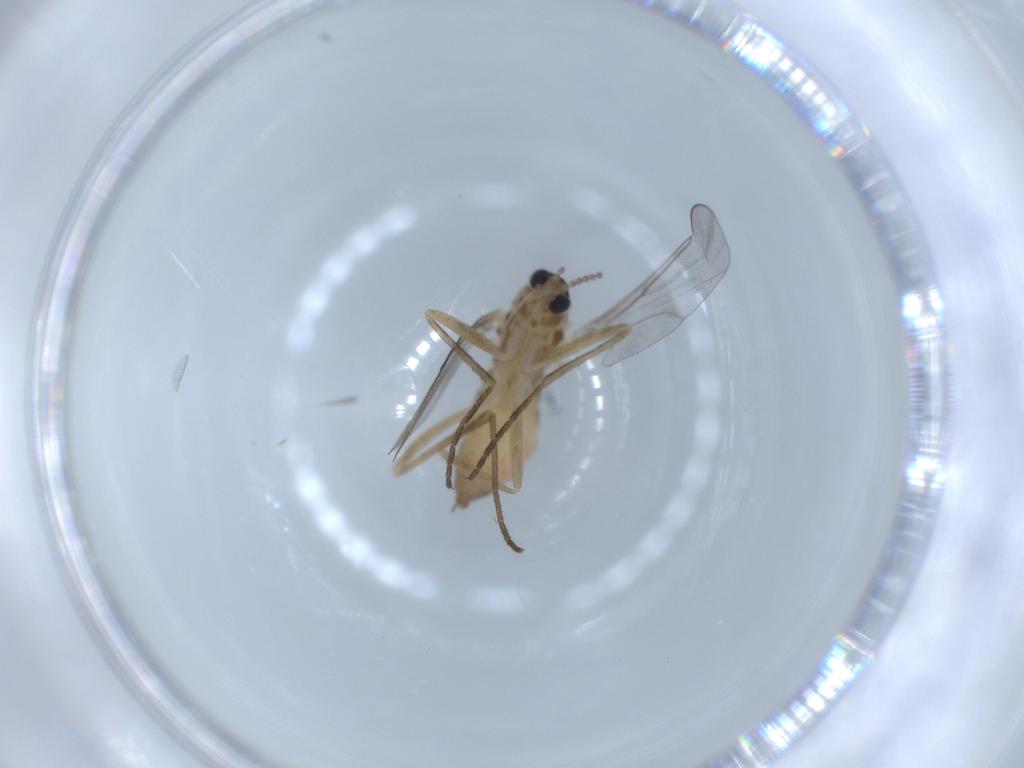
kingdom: Animalia
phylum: Arthropoda
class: Insecta
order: Diptera
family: Cecidomyiidae
